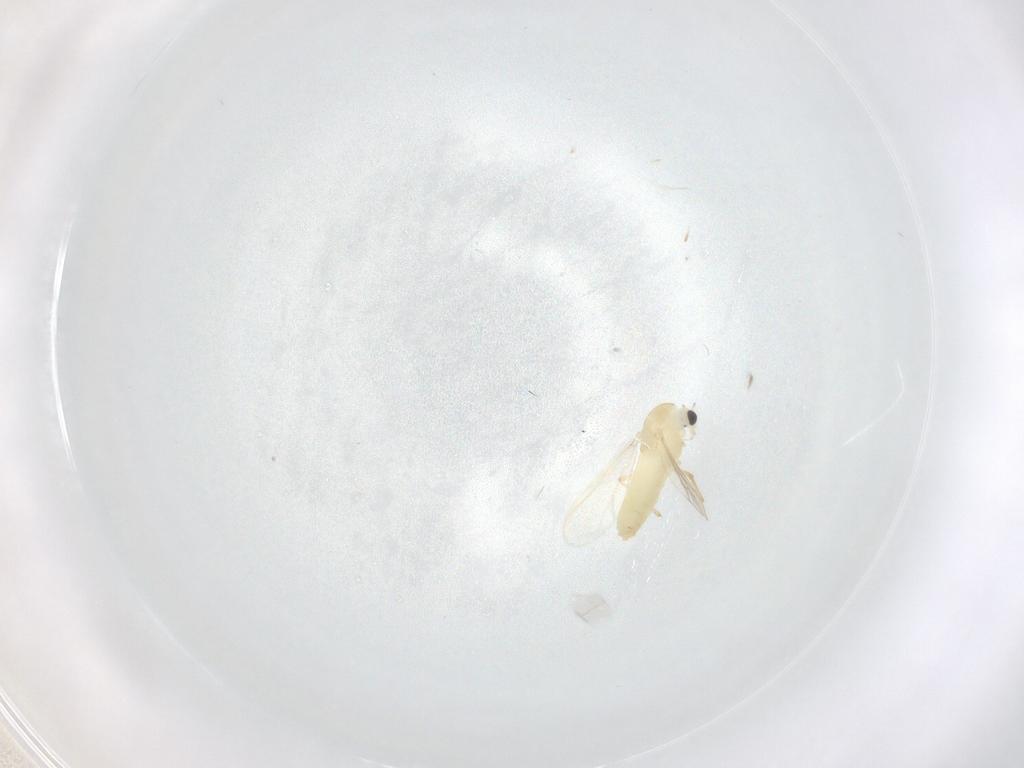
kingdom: Animalia
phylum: Arthropoda
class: Insecta
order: Diptera
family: Chironomidae
